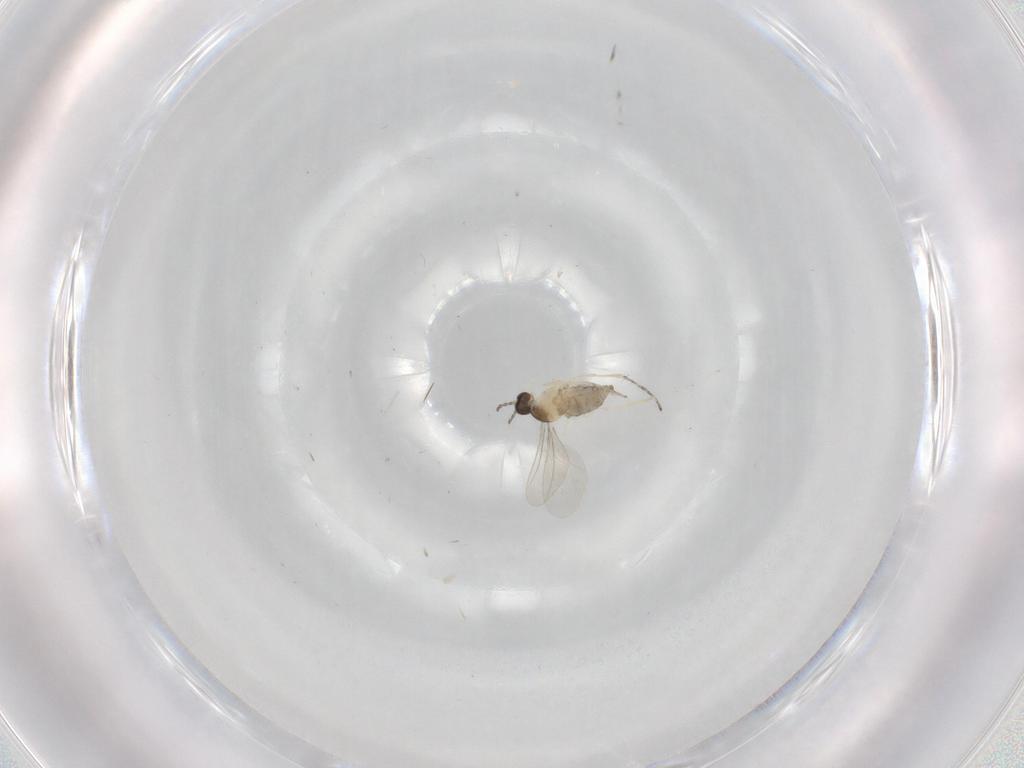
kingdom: Animalia
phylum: Arthropoda
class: Insecta
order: Diptera
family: Cecidomyiidae
